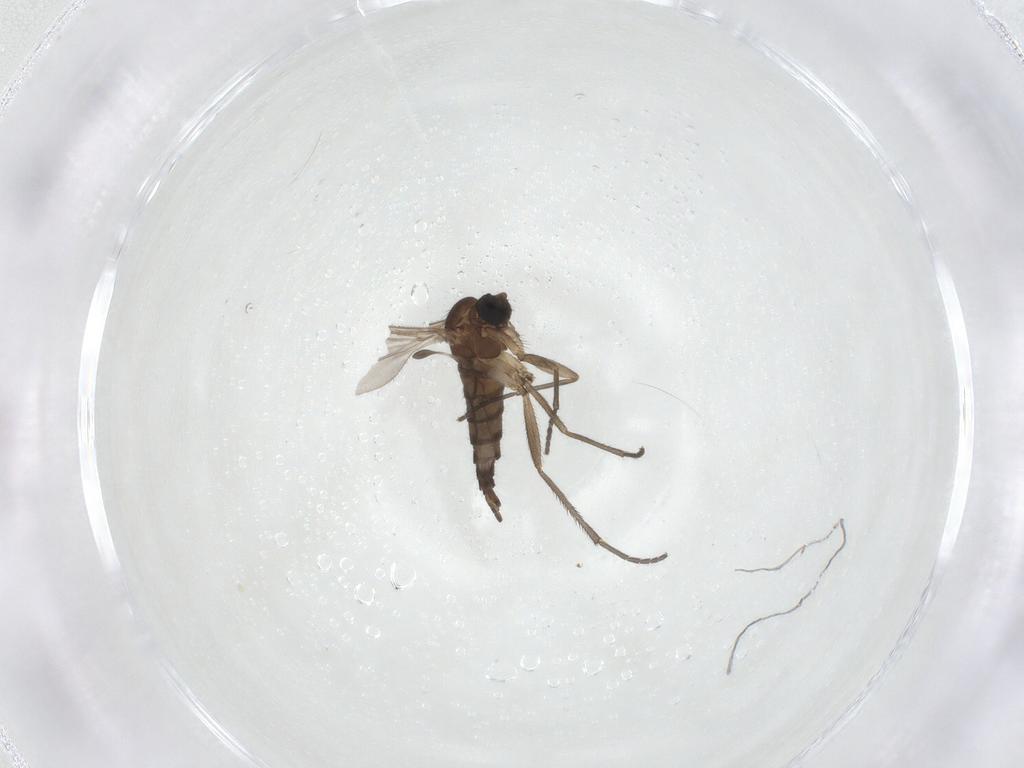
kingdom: Animalia
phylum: Arthropoda
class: Insecta
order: Diptera
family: Sciaridae
